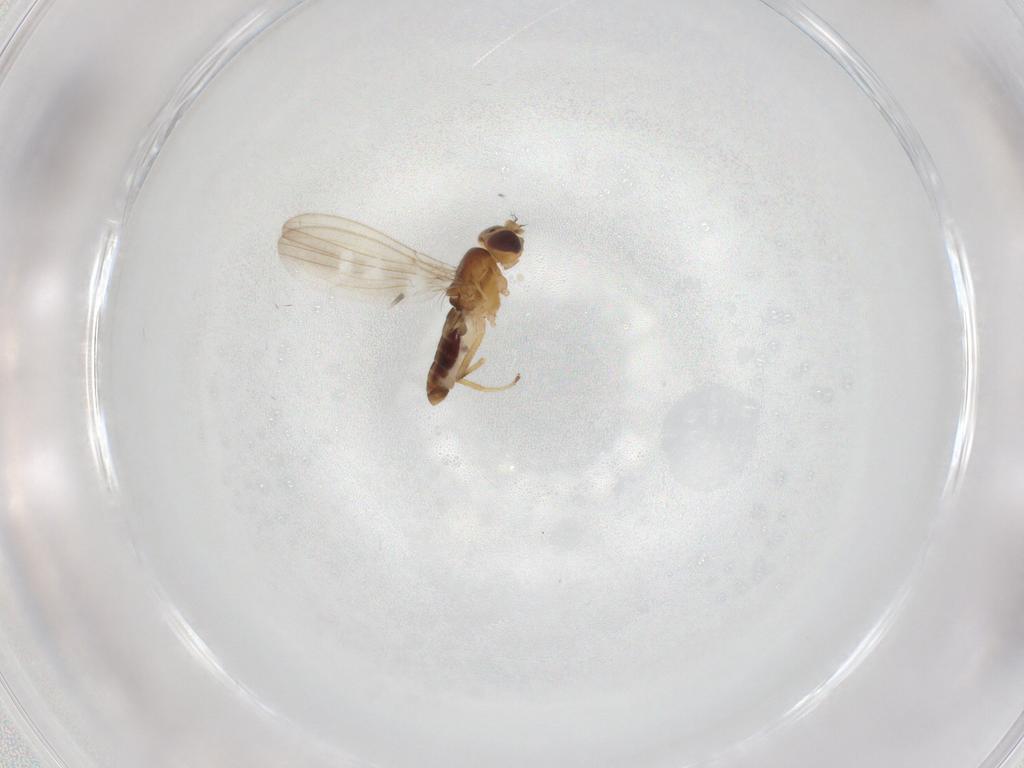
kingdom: Animalia
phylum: Arthropoda
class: Insecta
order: Diptera
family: Periscelididae
